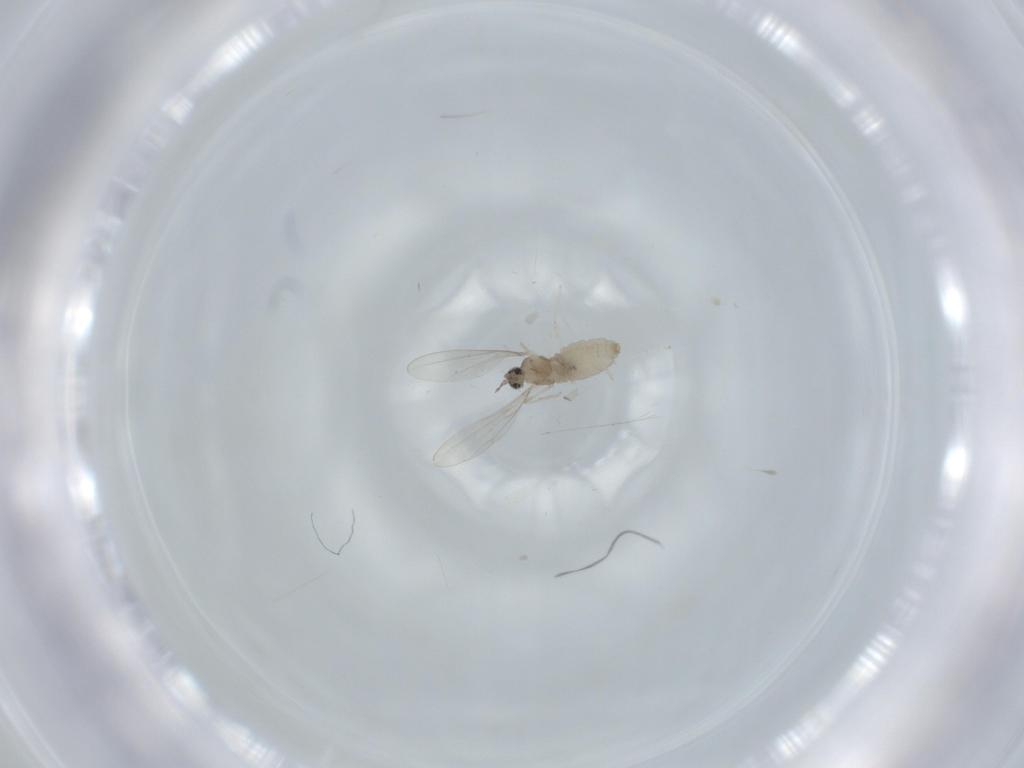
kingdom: Animalia
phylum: Arthropoda
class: Insecta
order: Diptera
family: Cecidomyiidae
